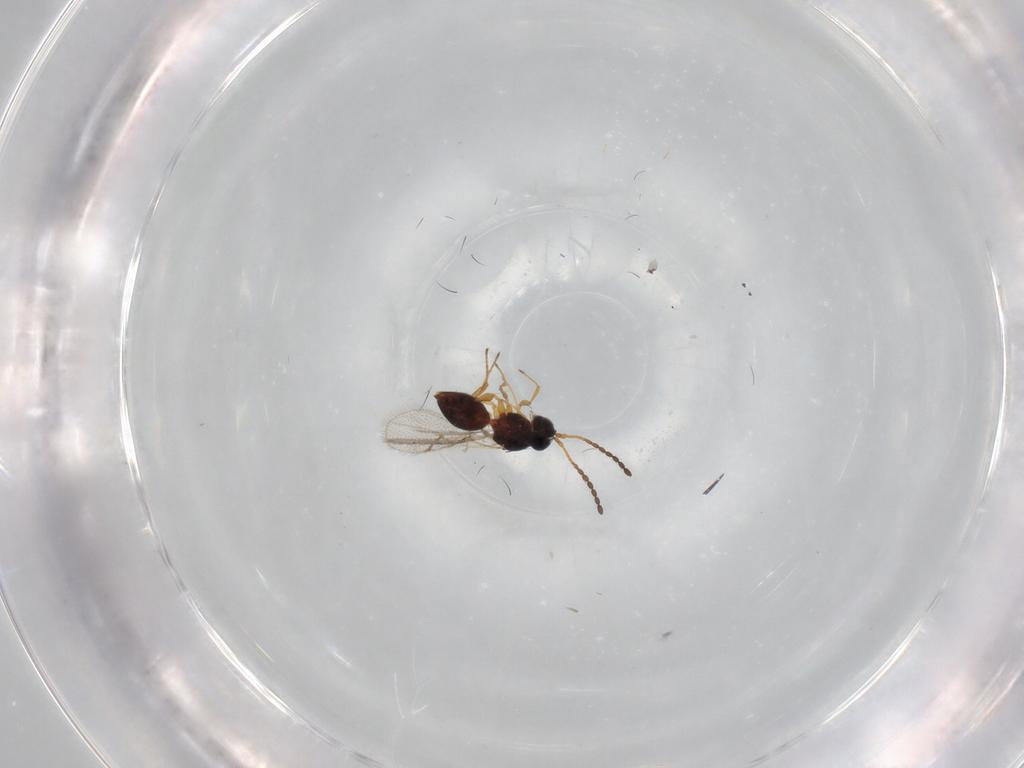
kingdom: Animalia
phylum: Arthropoda
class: Insecta
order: Hymenoptera
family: Figitidae
